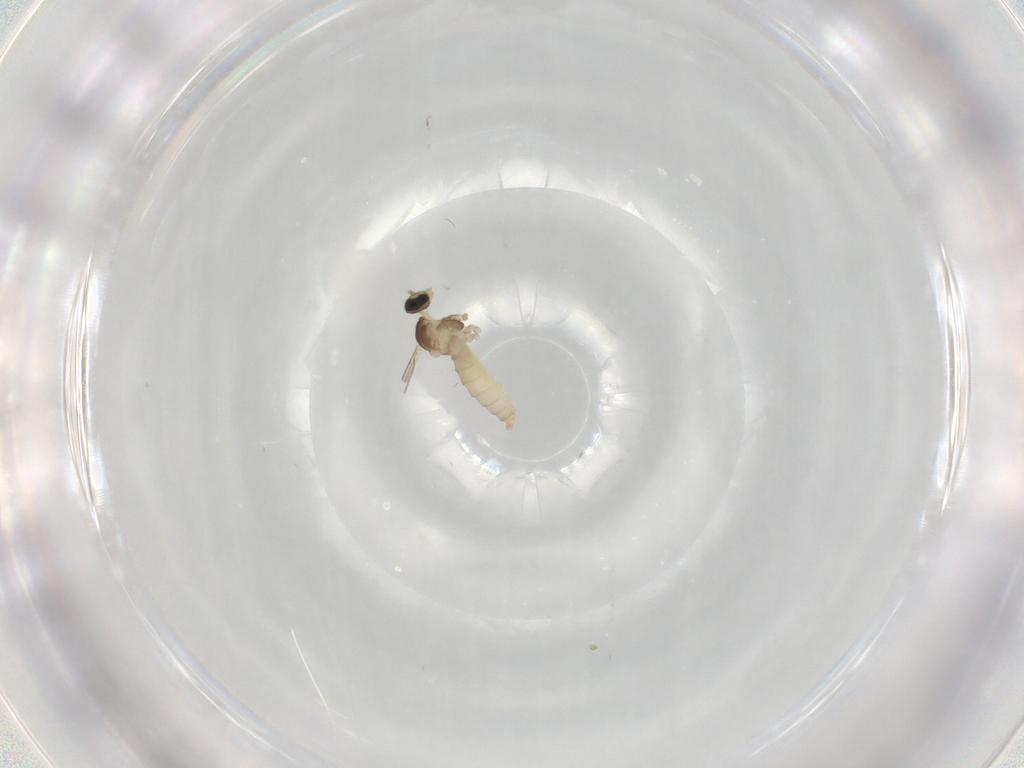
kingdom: Animalia
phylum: Arthropoda
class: Insecta
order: Diptera
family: Cecidomyiidae
